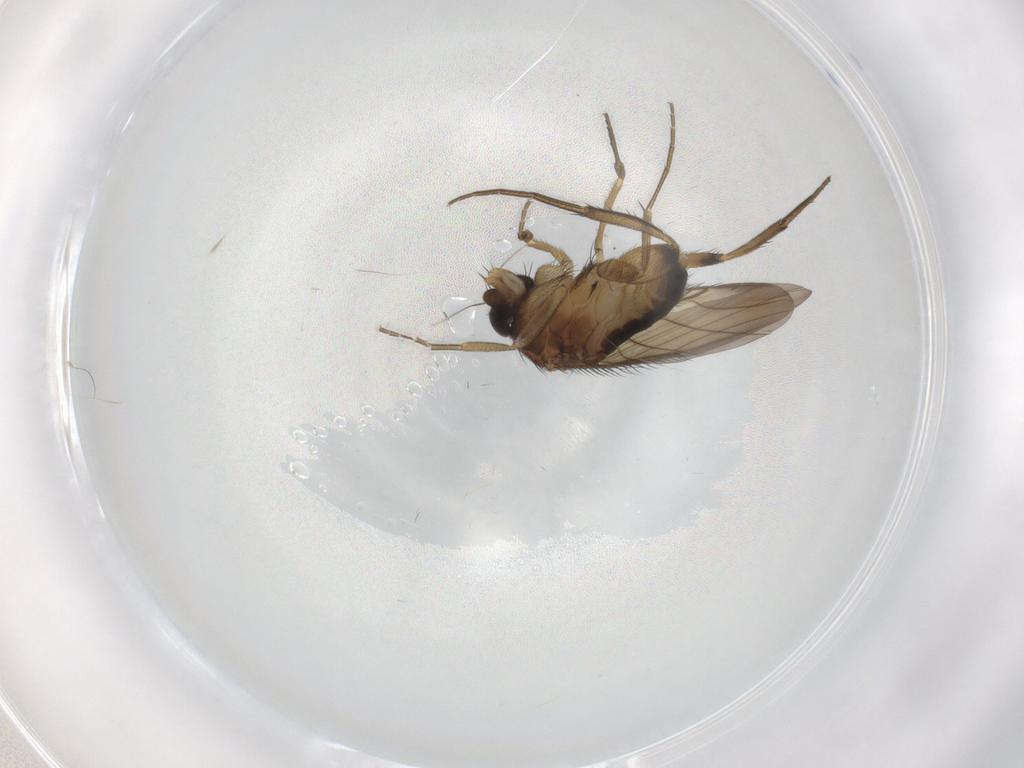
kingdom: Animalia
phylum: Arthropoda
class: Insecta
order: Diptera
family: Phoridae
